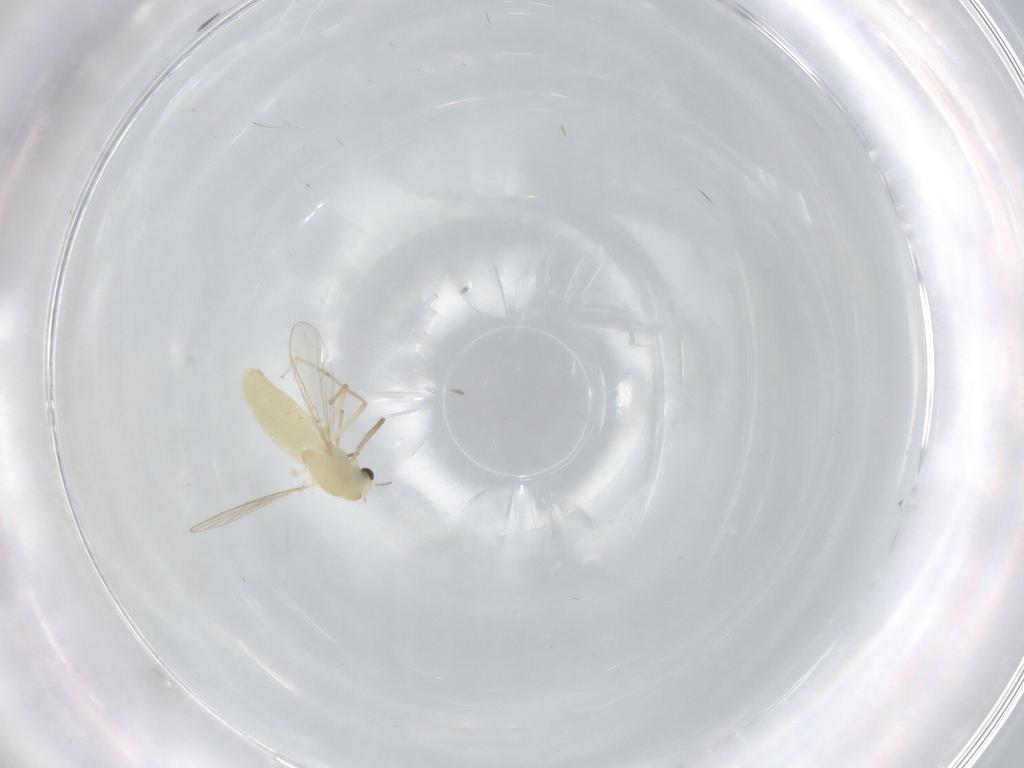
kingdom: Animalia
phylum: Arthropoda
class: Insecta
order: Diptera
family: Chironomidae
